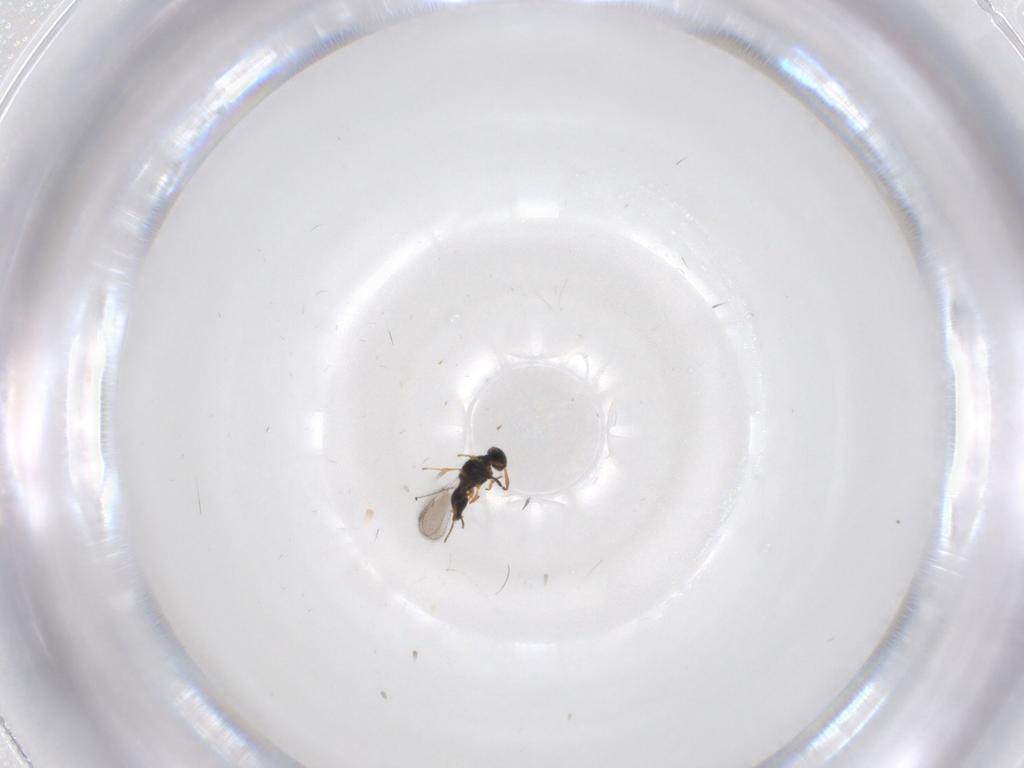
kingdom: Animalia
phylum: Arthropoda
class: Insecta
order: Hymenoptera
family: Platygastridae
